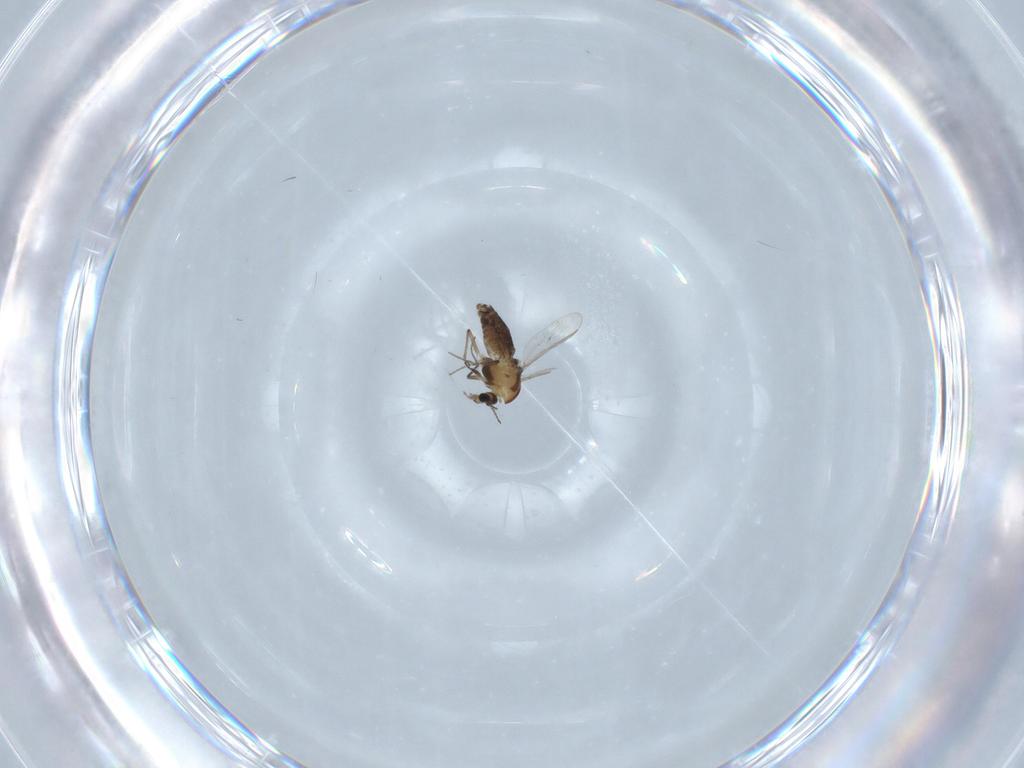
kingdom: Animalia
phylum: Arthropoda
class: Insecta
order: Diptera
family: Chironomidae
